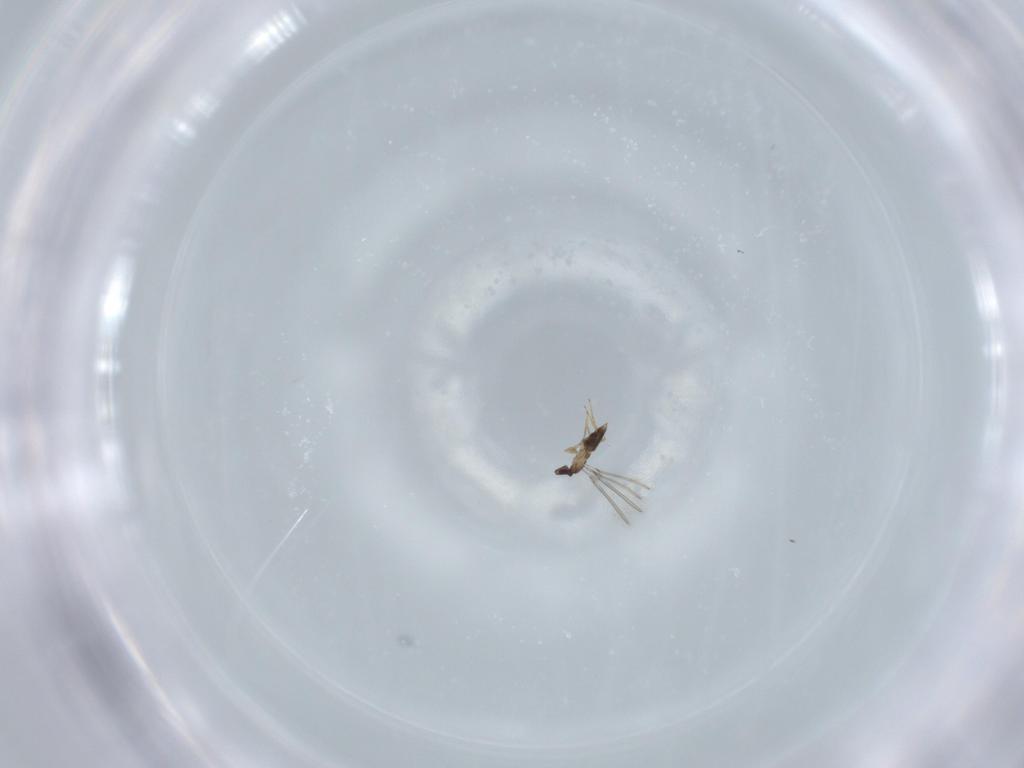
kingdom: Animalia
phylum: Arthropoda
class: Insecta
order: Hymenoptera
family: Mymaridae
